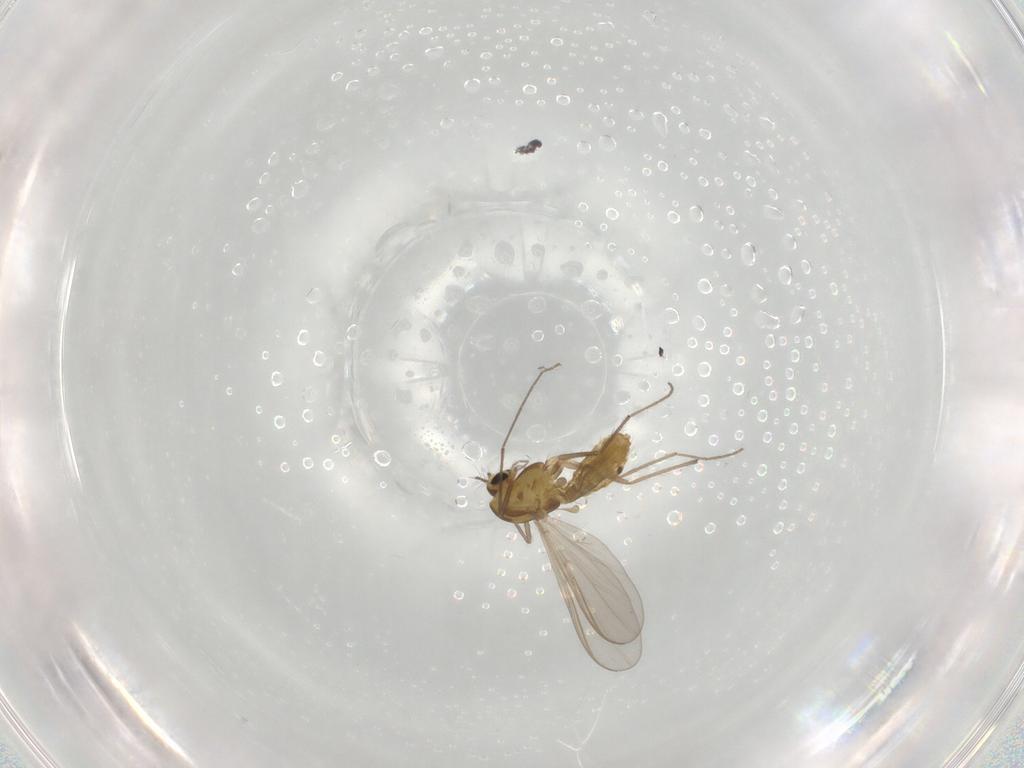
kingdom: Animalia
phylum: Arthropoda
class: Insecta
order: Diptera
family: Chironomidae
